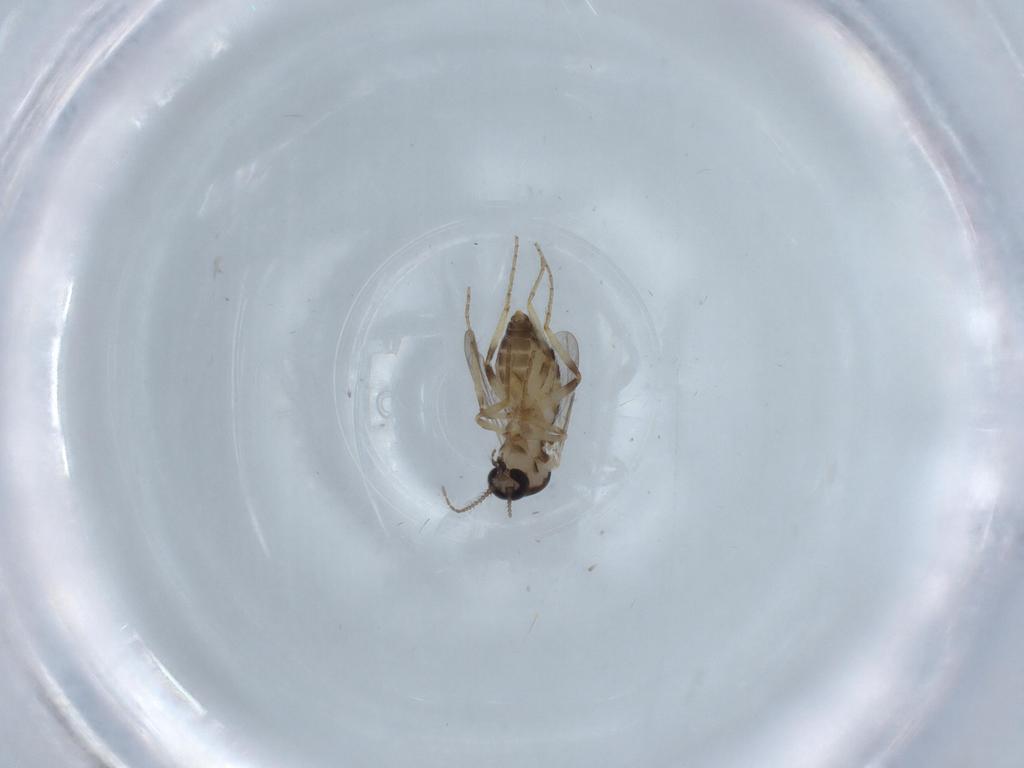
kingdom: Animalia
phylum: Arthropoda
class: Insecta
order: Diptera
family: Ceratopogonidae
